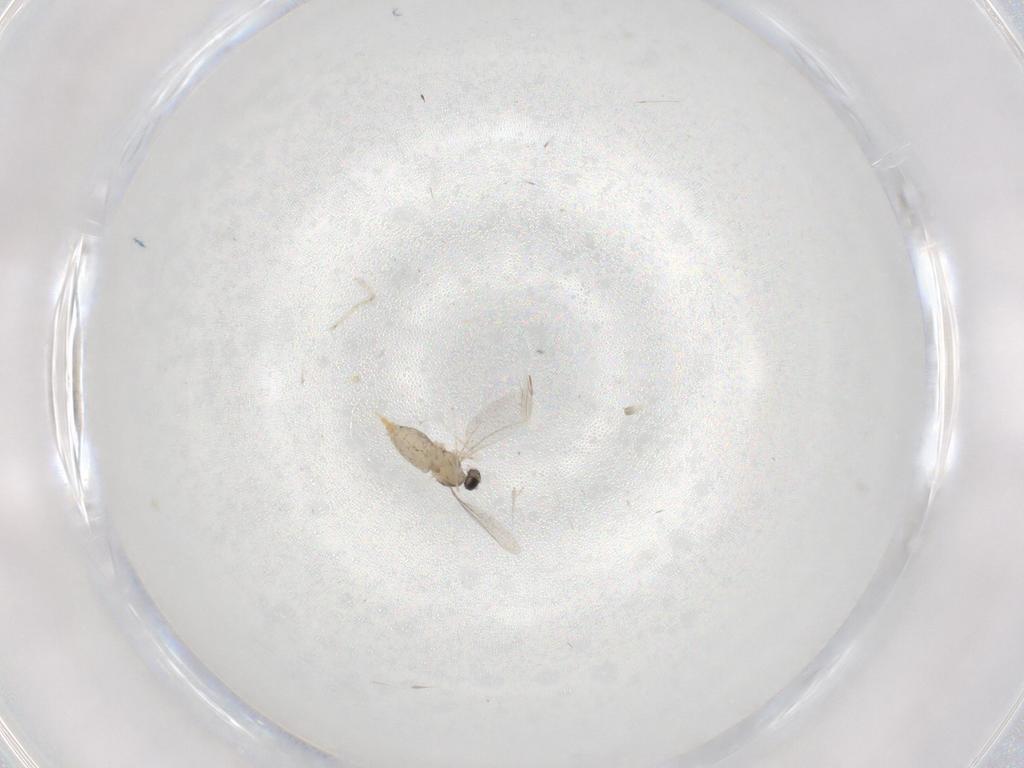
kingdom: Animalia
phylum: Arthropoda
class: Insecta
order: Diptera
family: Cecidomyiidae
